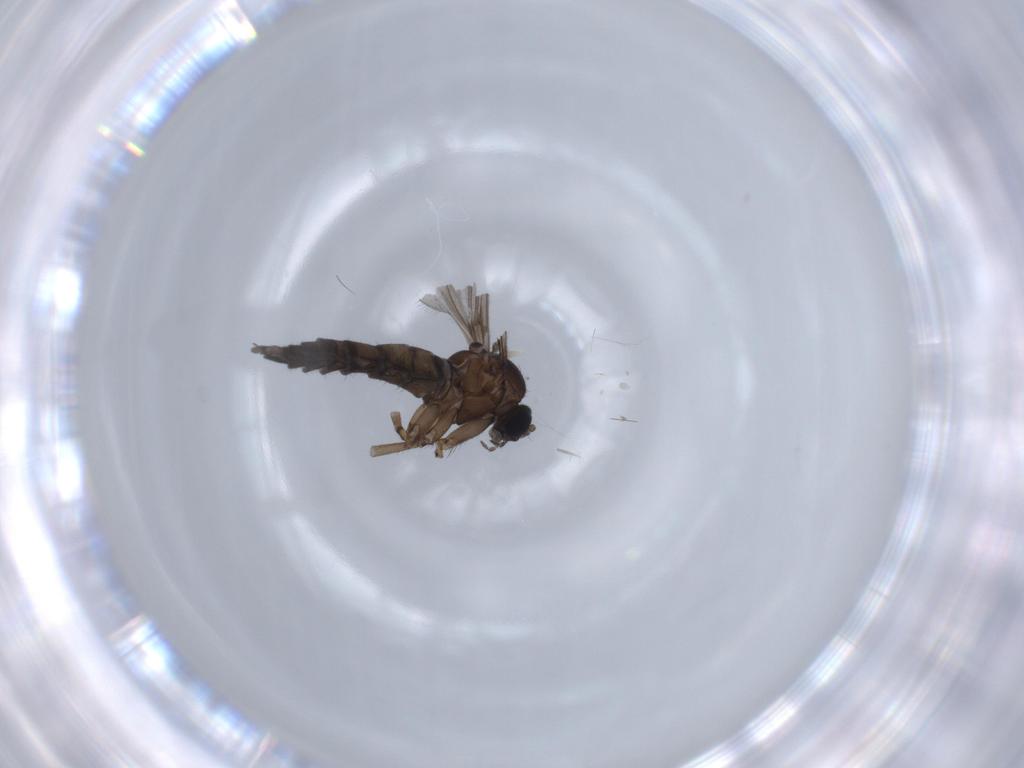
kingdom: Animalia
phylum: Arthropoda
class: Insecta
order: Diptera
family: Sciaridae
